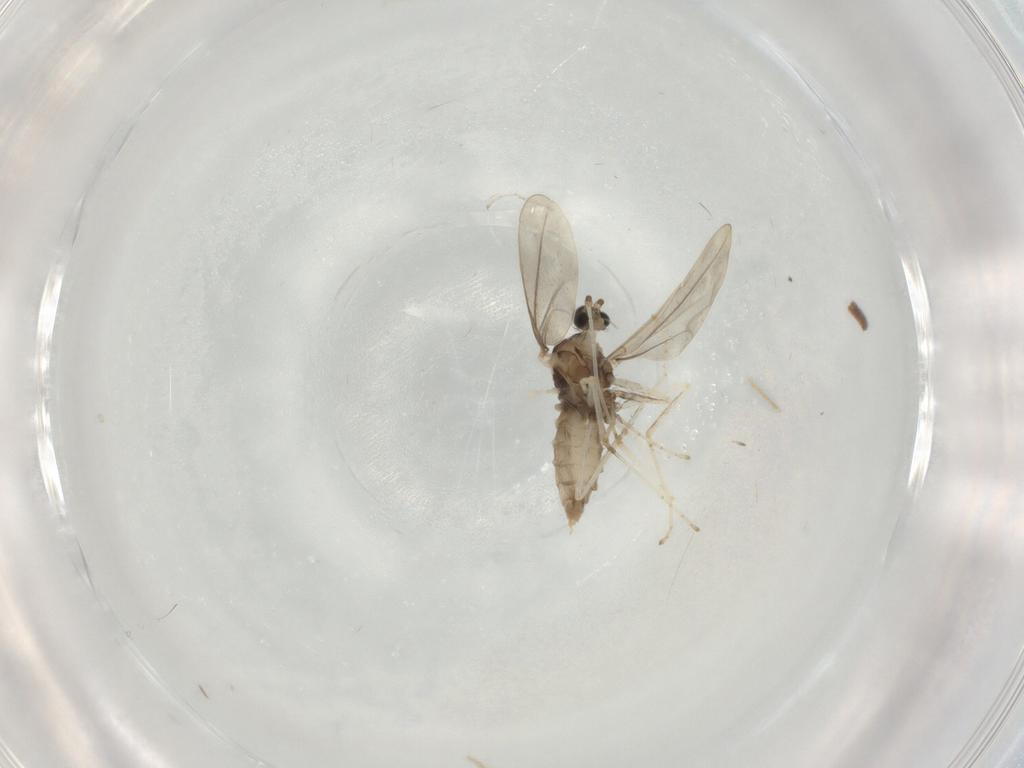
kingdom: Animalia
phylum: Arthropoda
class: Insecta
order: Diptera
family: Cecidomyiidae
